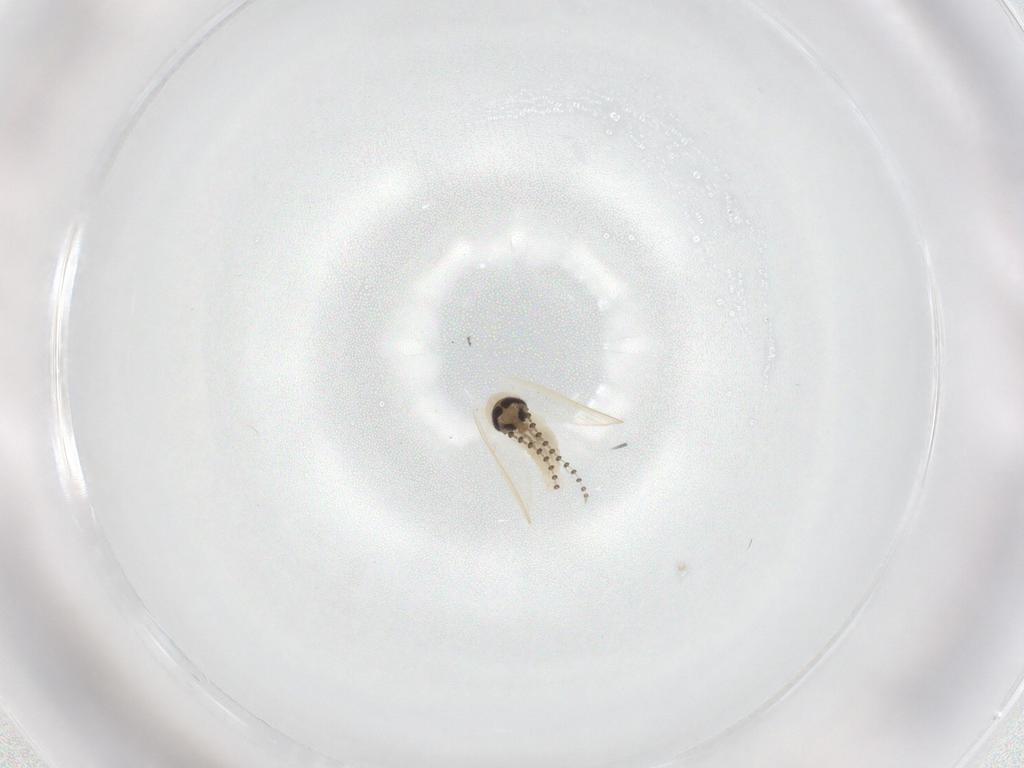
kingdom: Animalia
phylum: Arthropoda
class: Insecta
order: Diptera
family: Psychodidae
